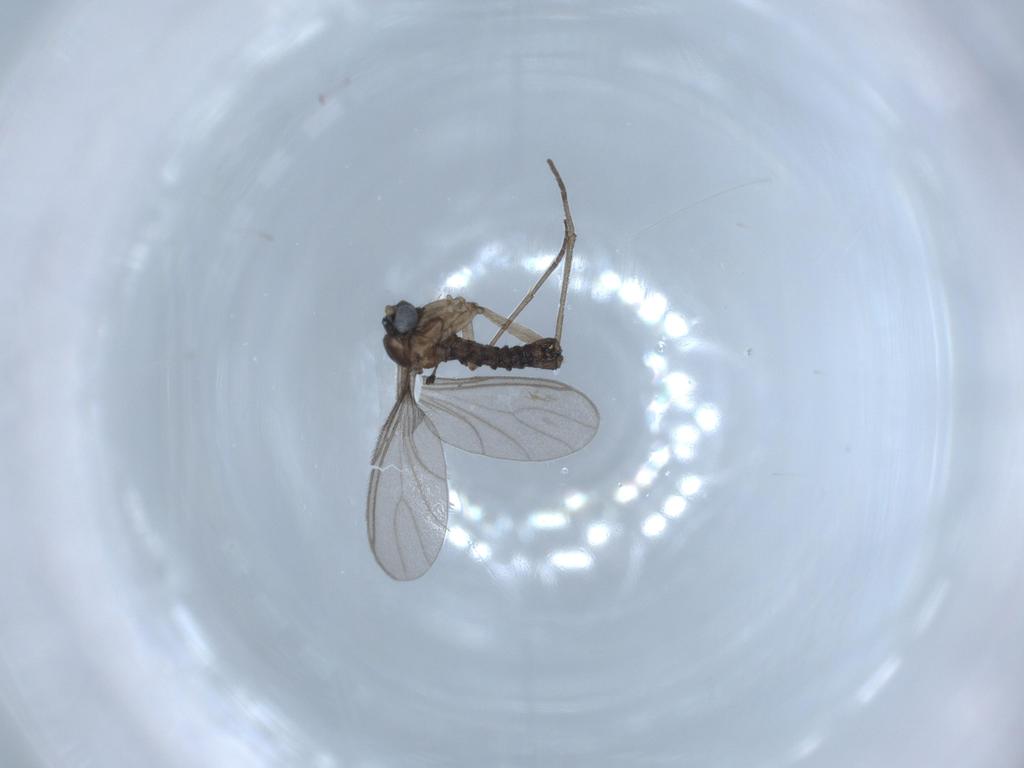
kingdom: Animalia
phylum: Arthropoda
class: Insecta
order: Diptera
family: Sciaridae
